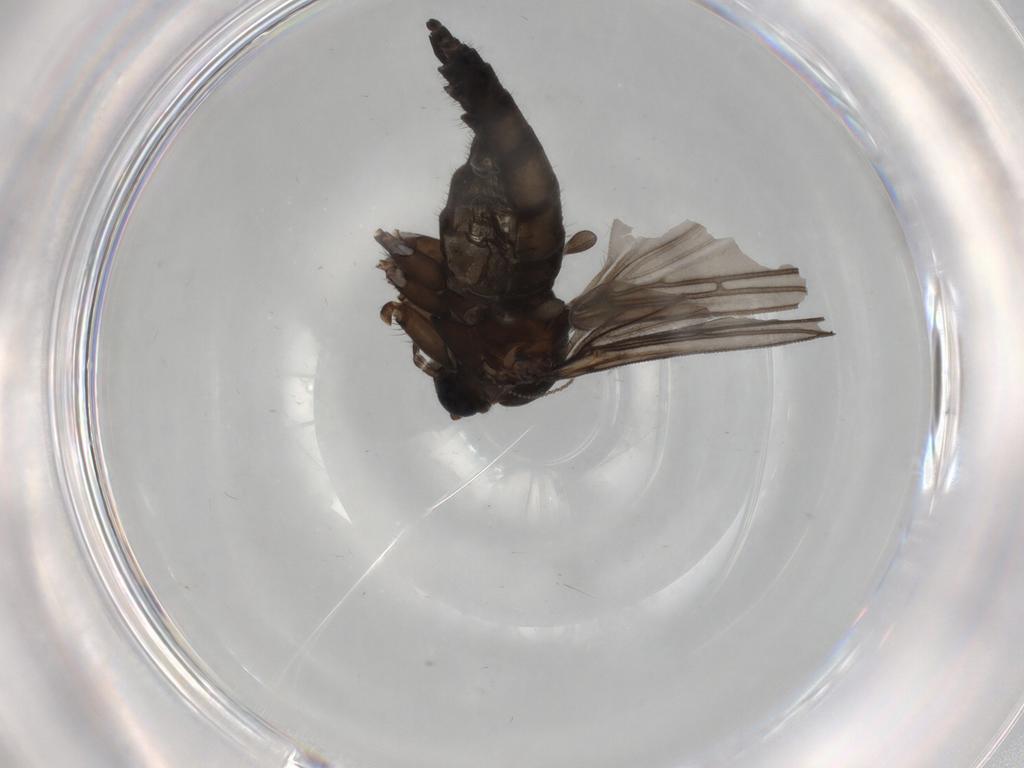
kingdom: Animalia
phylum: Arthropoda
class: Insecta
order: Diptera
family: Sciaridae
